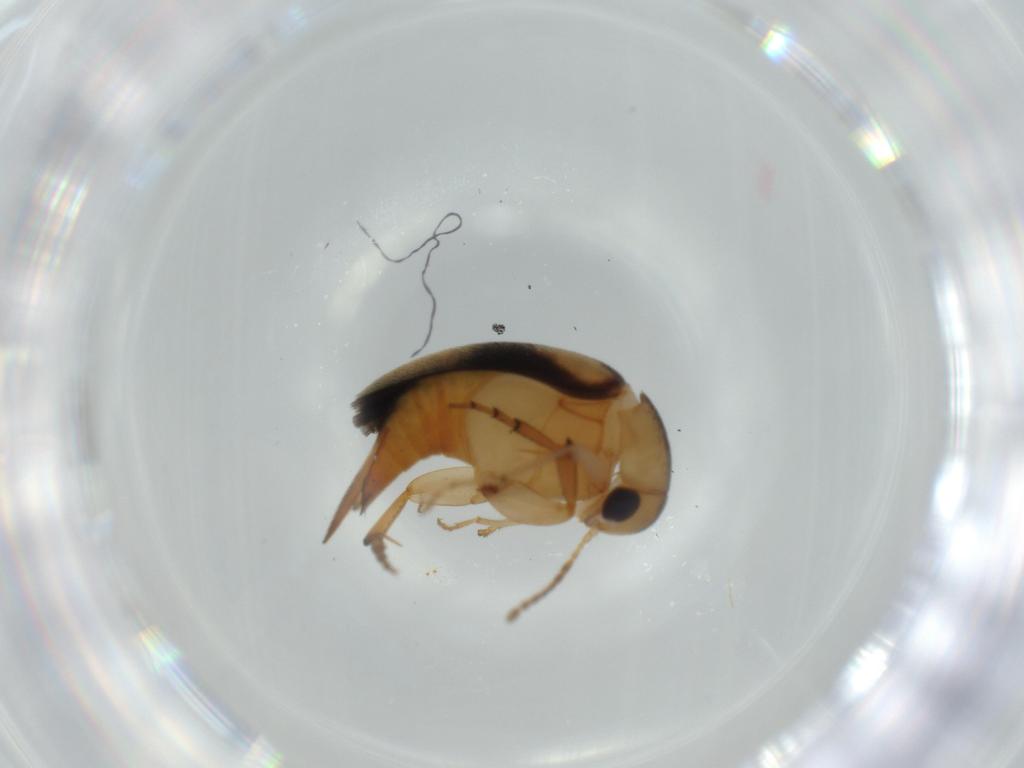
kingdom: Animalia
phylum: Arthropoda
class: Insecta
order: Coleoptera
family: Mordellidae
